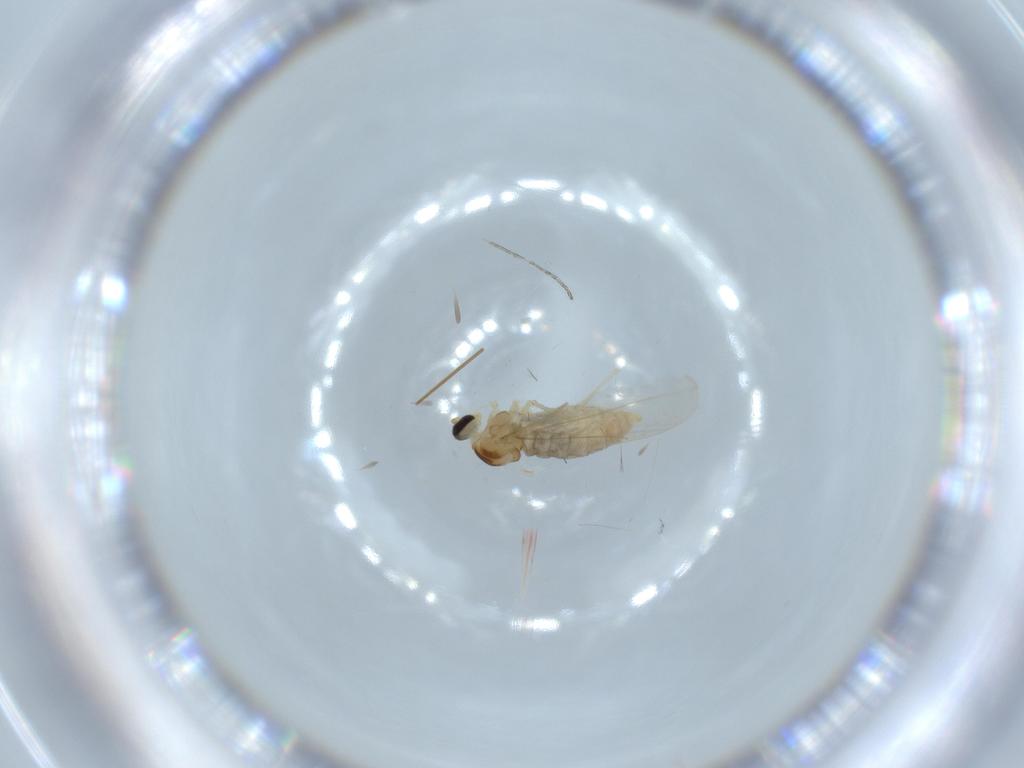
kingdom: Animalia
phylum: Arthropoda
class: Insecta
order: Diptera
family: Cecidomyiidae
